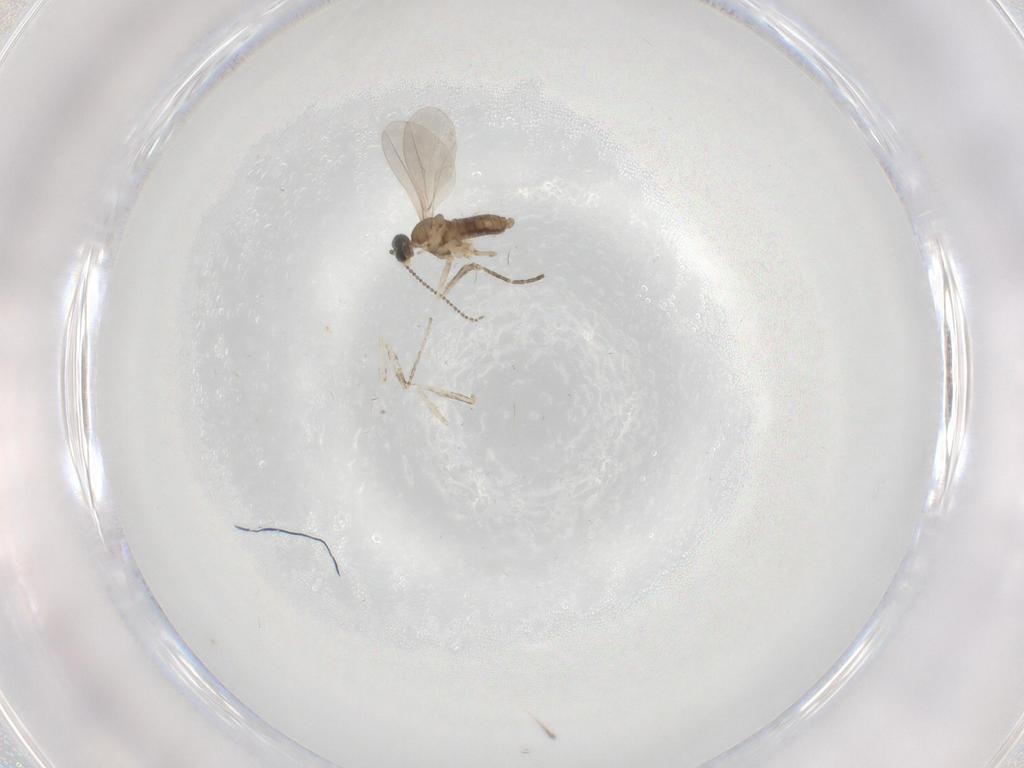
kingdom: Animalia
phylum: Arthropoda
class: Insecta
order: Diptera
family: Cecidomyiidae
